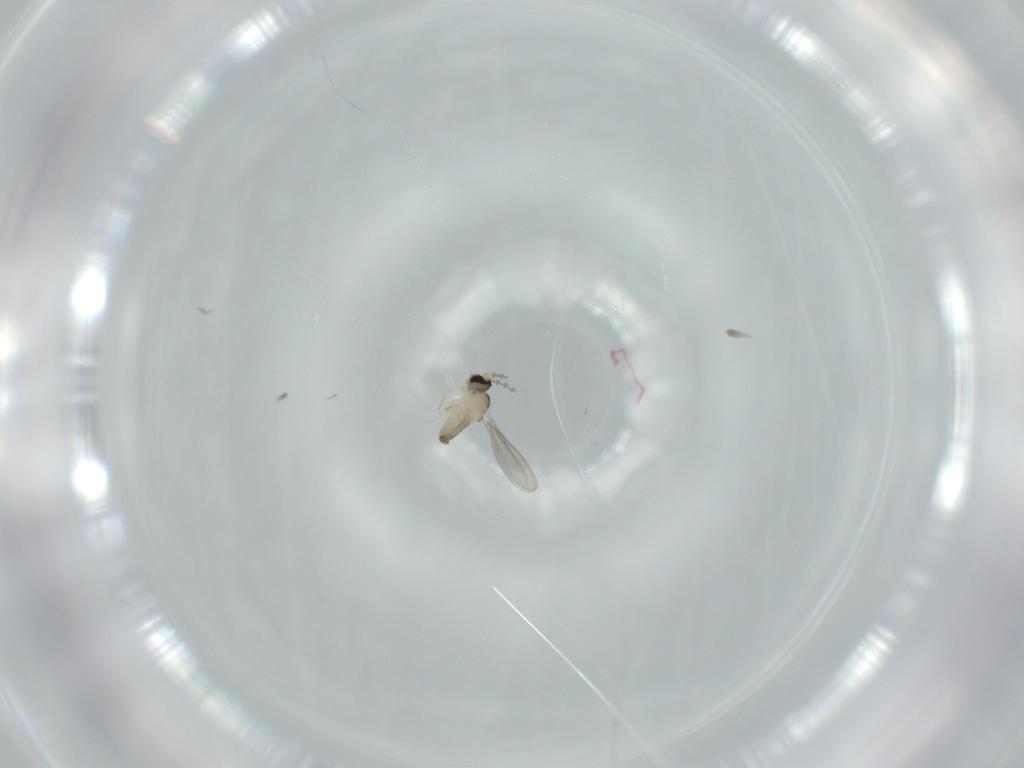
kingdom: Animalia
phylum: Arthropoda
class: Insecta
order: Diptera
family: Cecidomyiidae
